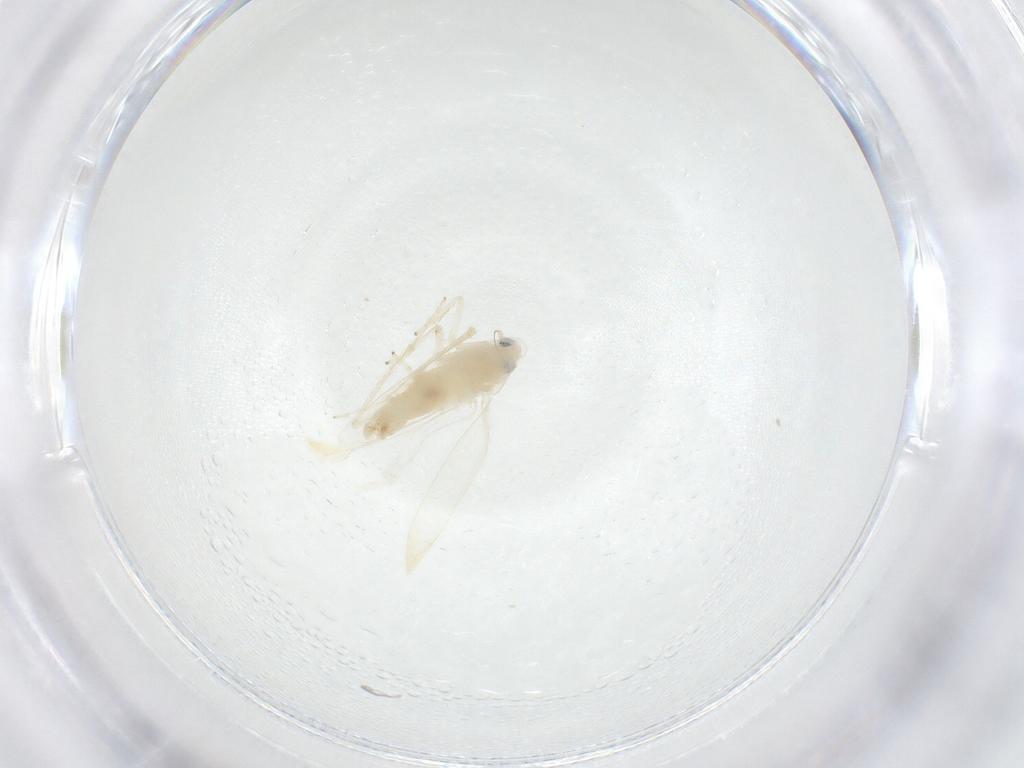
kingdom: Animalia
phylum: Arthropoda
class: Insecta
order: Hemiptera
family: Cicadellidae
